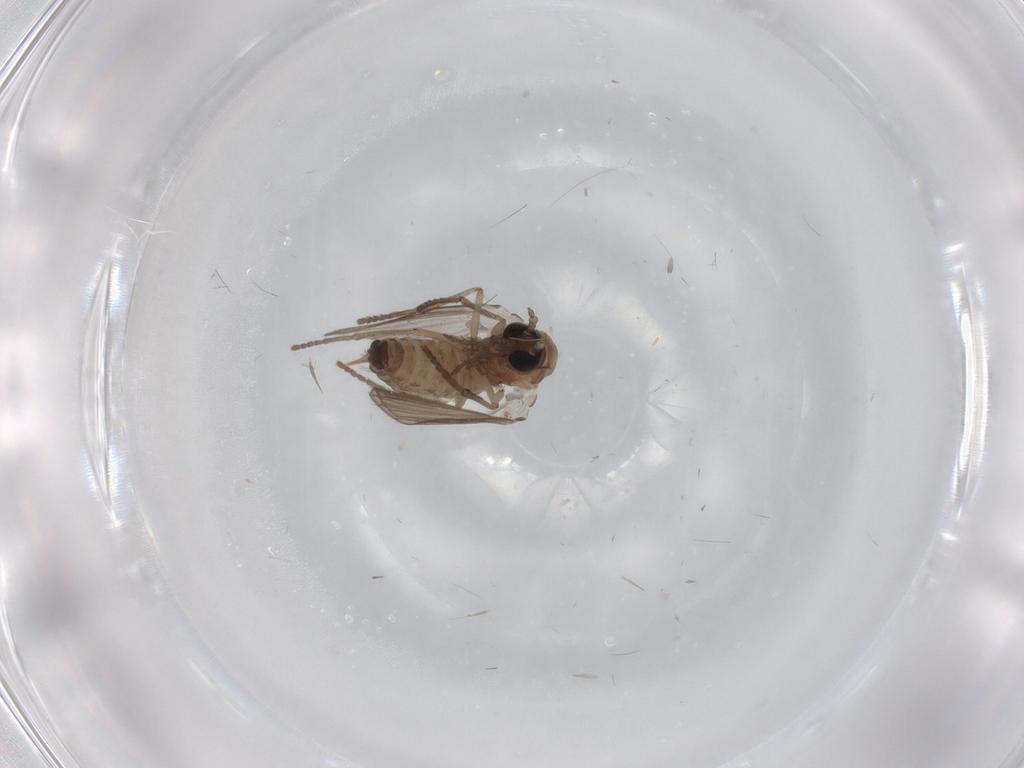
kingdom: Animalia
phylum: Arthropoda
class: Insecta
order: Diptera
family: Psychodidae
